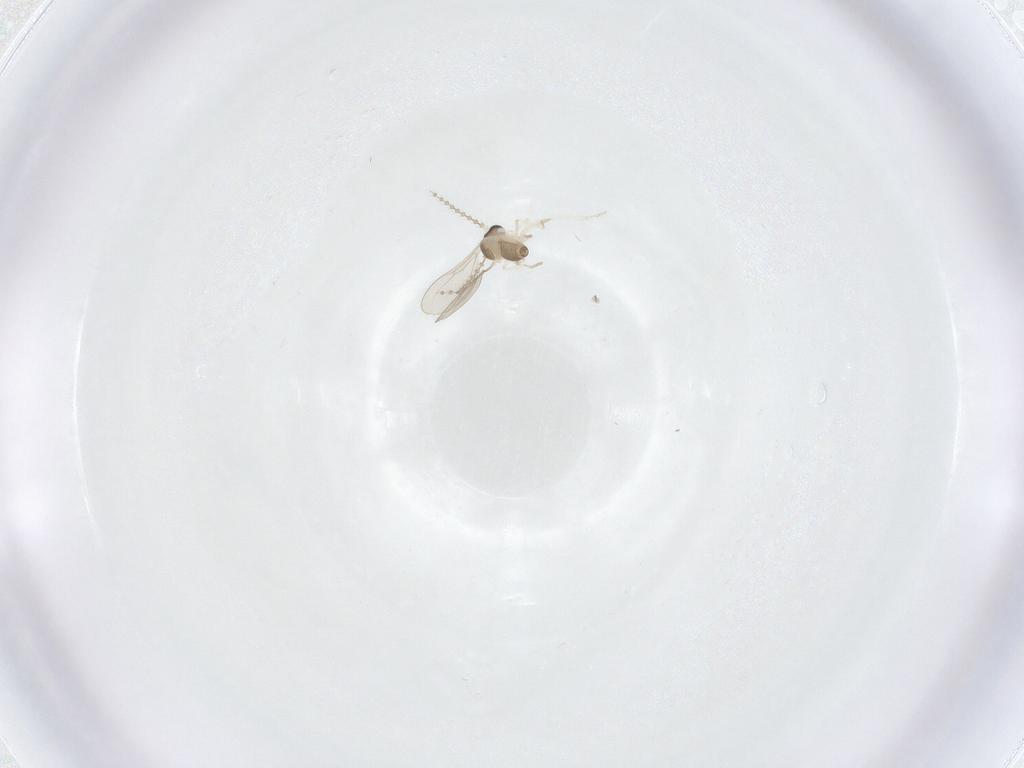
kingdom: Animalia
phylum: Arthropoda
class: Insecta
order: Diptera
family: Cecidomyiidae
